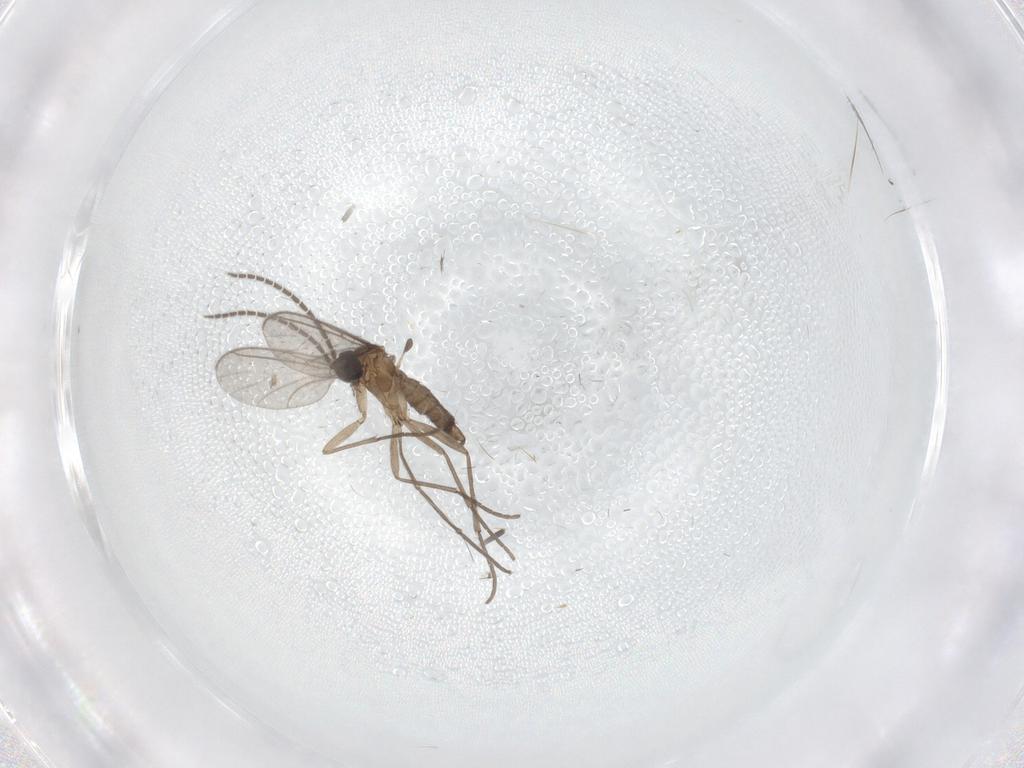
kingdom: Animalia
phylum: Arthropoda
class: Insecta
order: Diptera
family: Sciaridae
